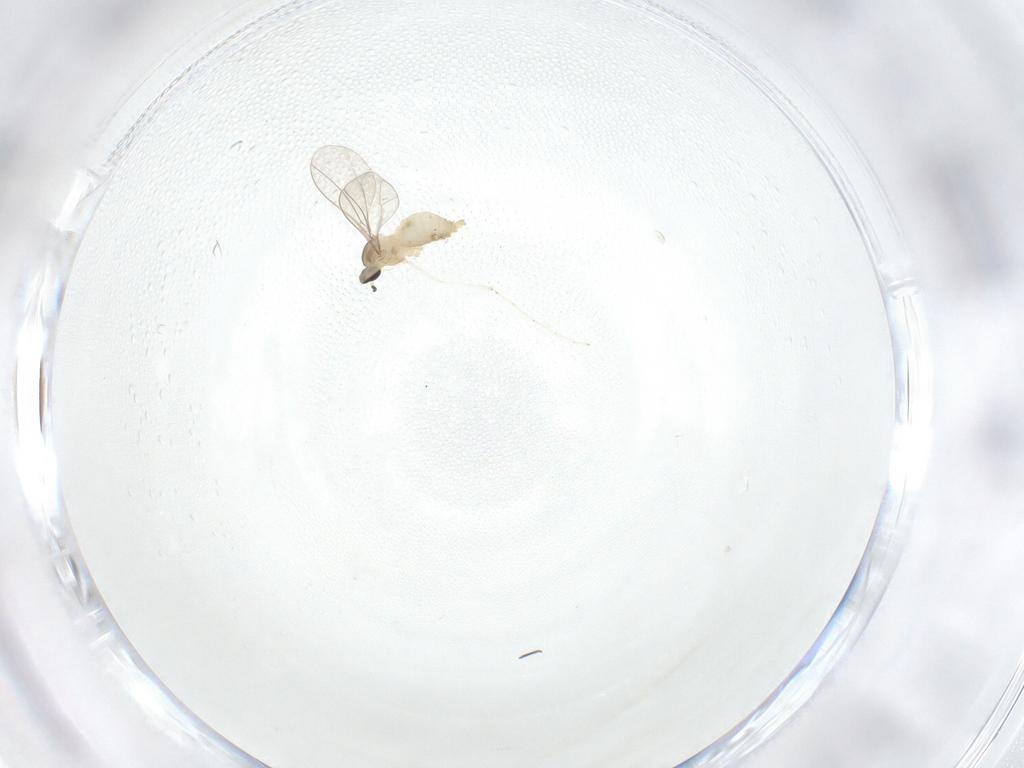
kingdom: Animalia
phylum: Arthropoda
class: Insecta
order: Diptera
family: Cecidomyiidae
